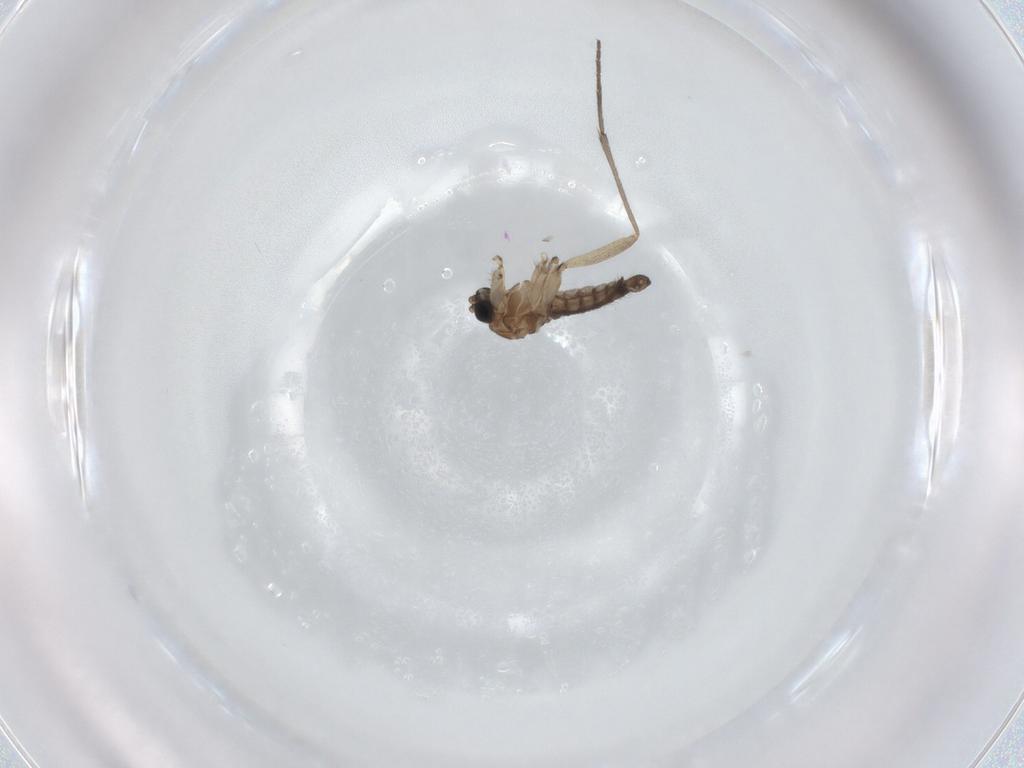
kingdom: Animalia
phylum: Arthropoda
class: Insecta
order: Diptera
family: Sciaridae
